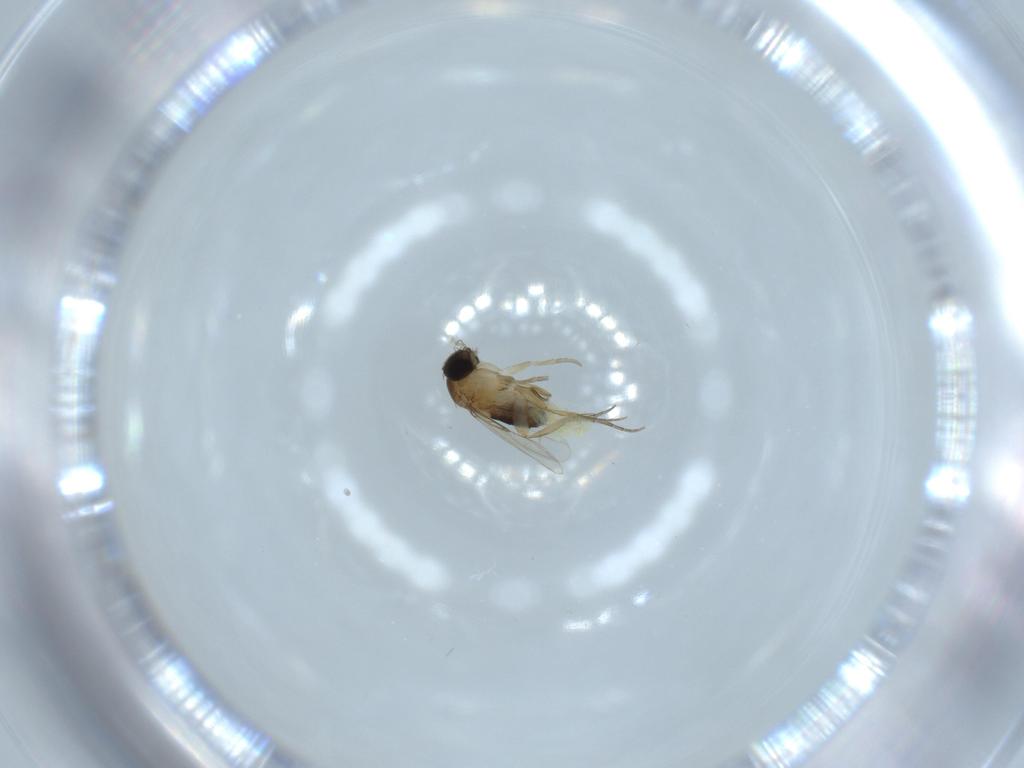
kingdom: Animalia
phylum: Arthropoda
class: Insecta
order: Diptera
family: Phoridae
